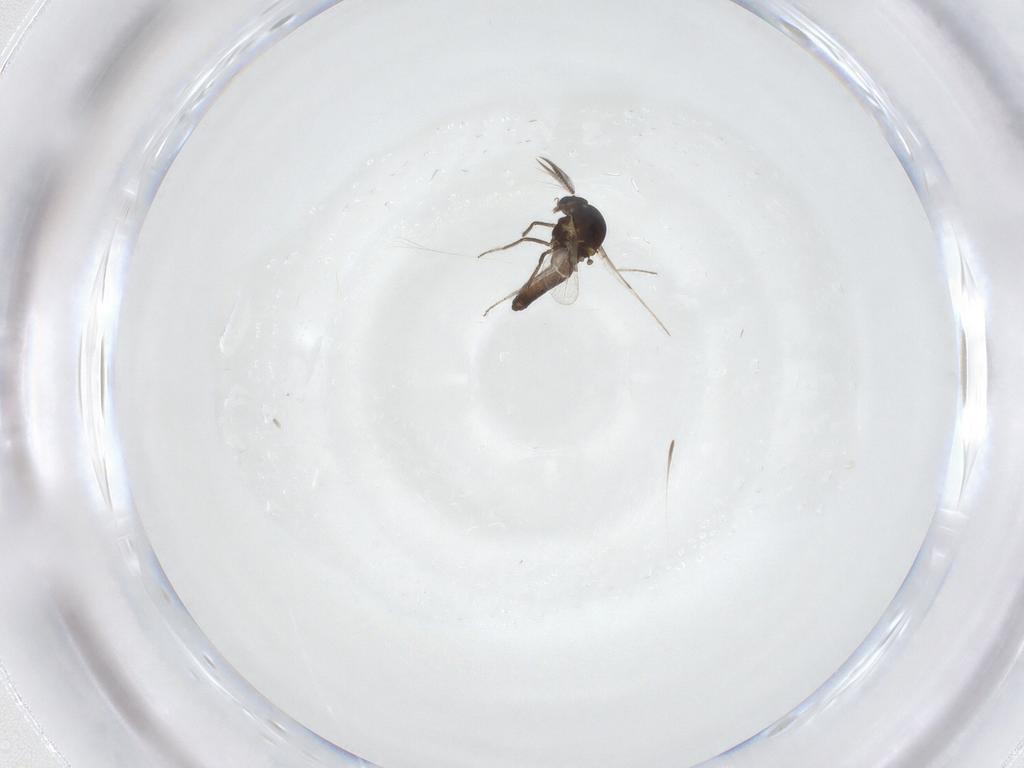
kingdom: Animalia
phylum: Arthropoda
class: Insecta
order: Diptera
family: Ceratopogonidae
